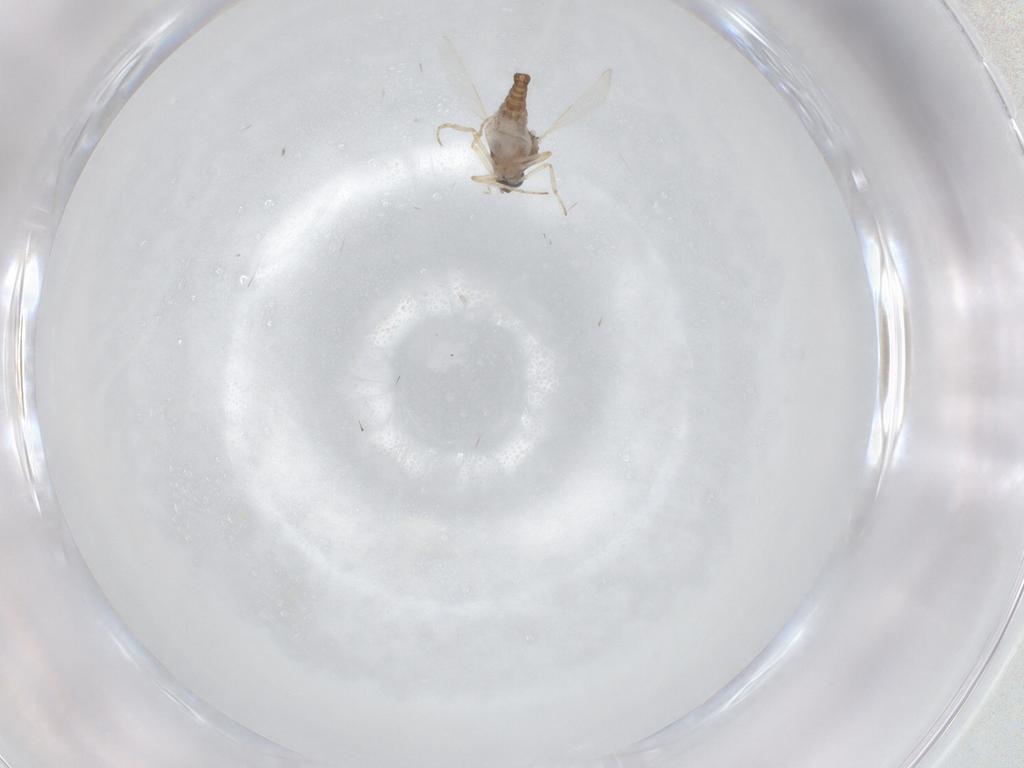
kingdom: Animalia
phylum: Arthropoda
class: Insecta
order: Diptera
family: Ceratopogonidae
